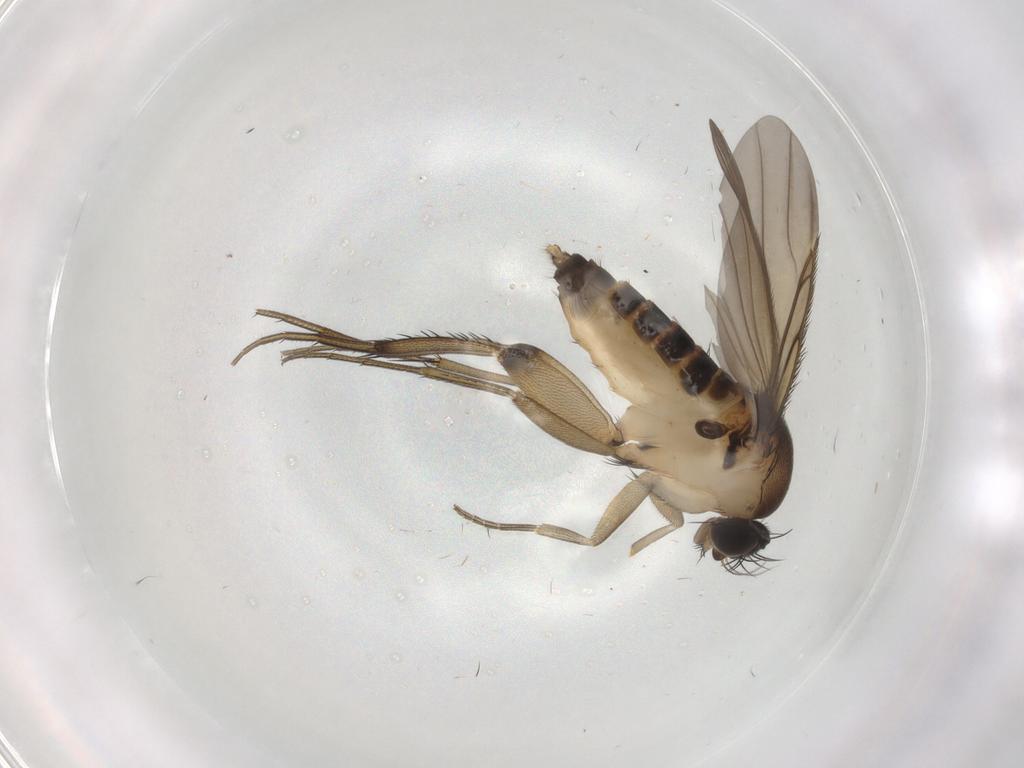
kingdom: Animalia
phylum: Arthropoda
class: Insecta
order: Diptera
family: Phoridae
